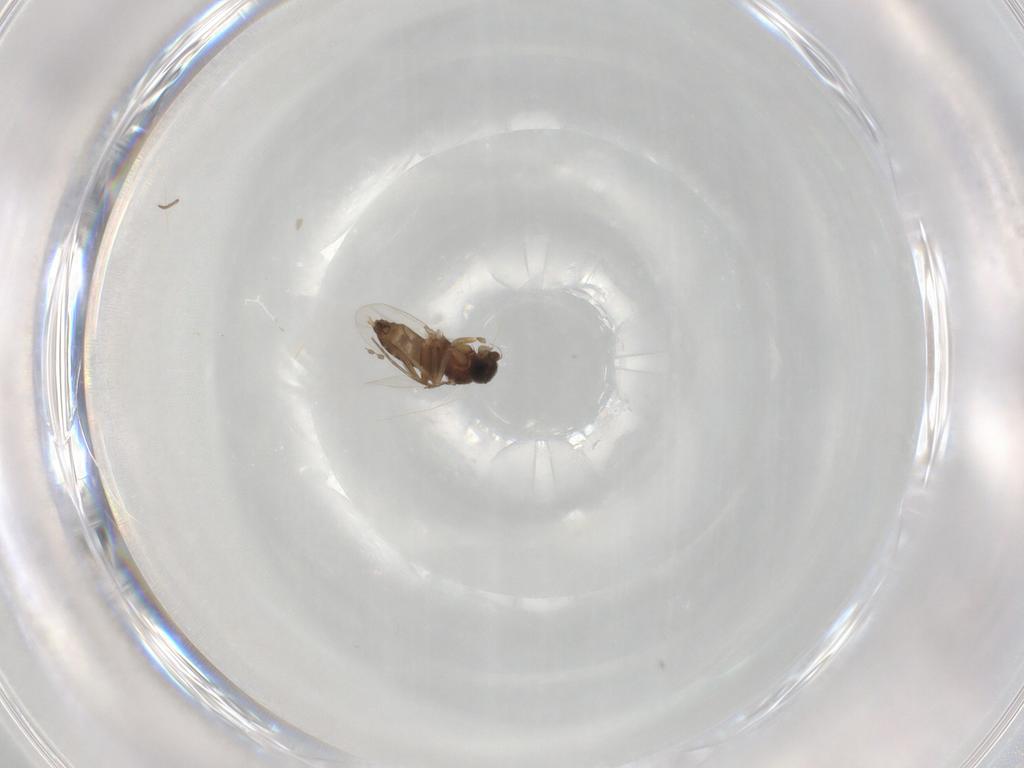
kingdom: Animalia
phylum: Arthropoda
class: Insecta
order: Diptera
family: Phoridae
